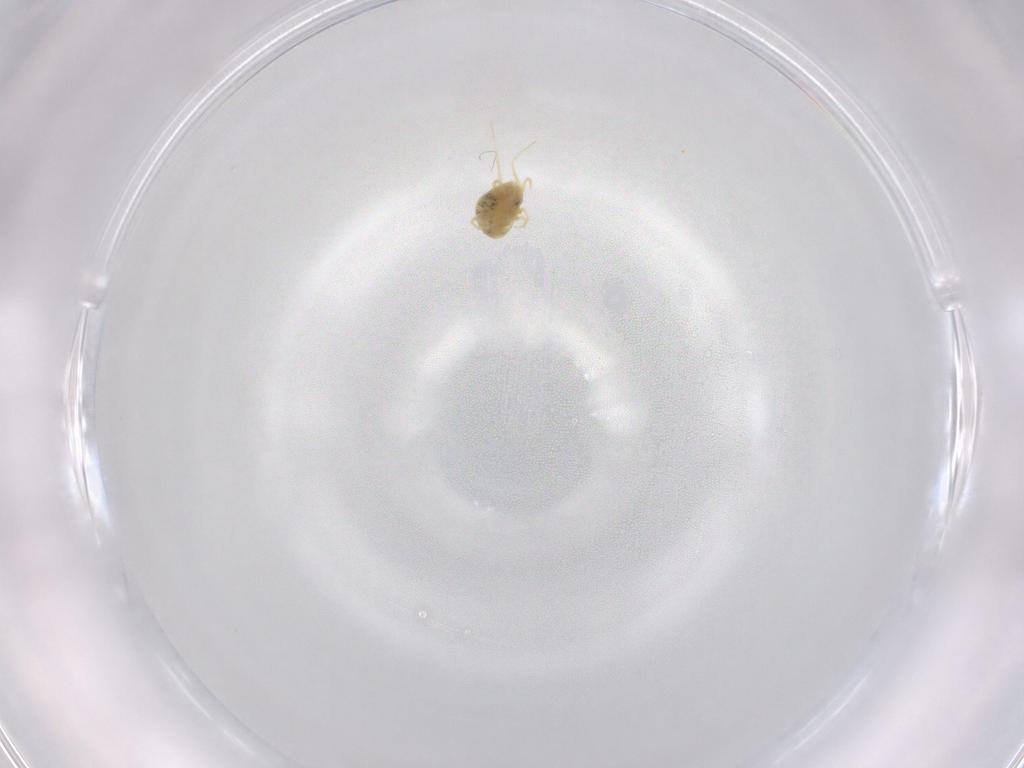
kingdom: Animalia
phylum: Arthropoda
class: Arachnida
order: Trombidiformes
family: Tetranychidae
